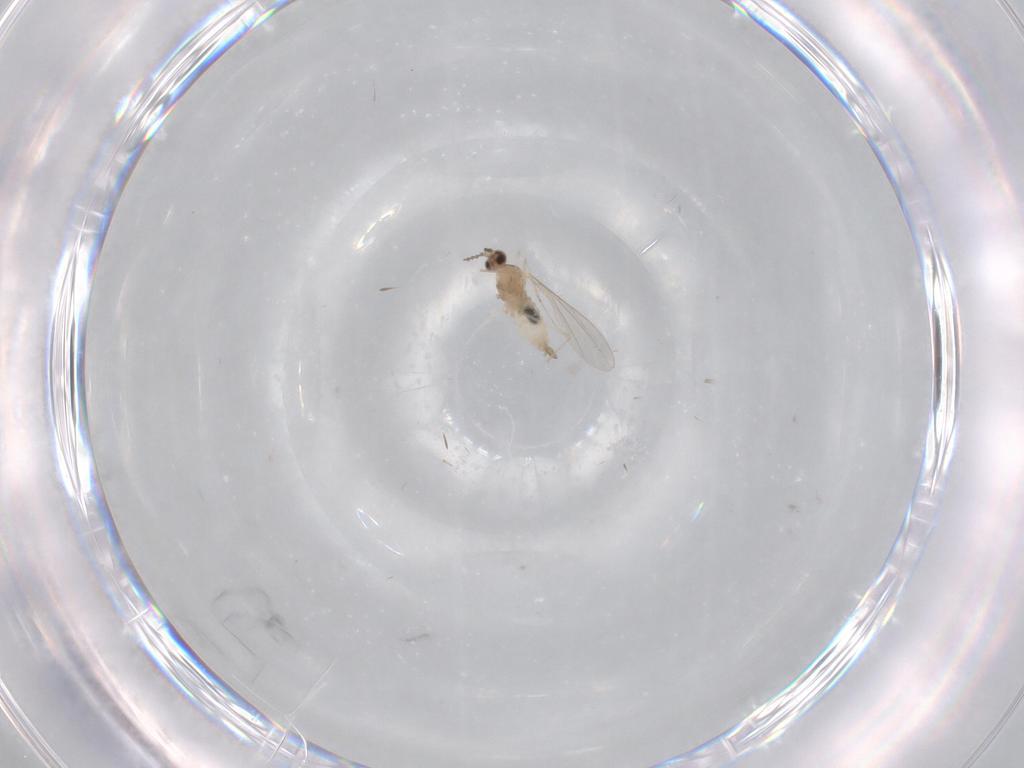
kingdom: Animalia
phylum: Arthropoda
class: Insecta
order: Diptera
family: Cecidomyiidae
